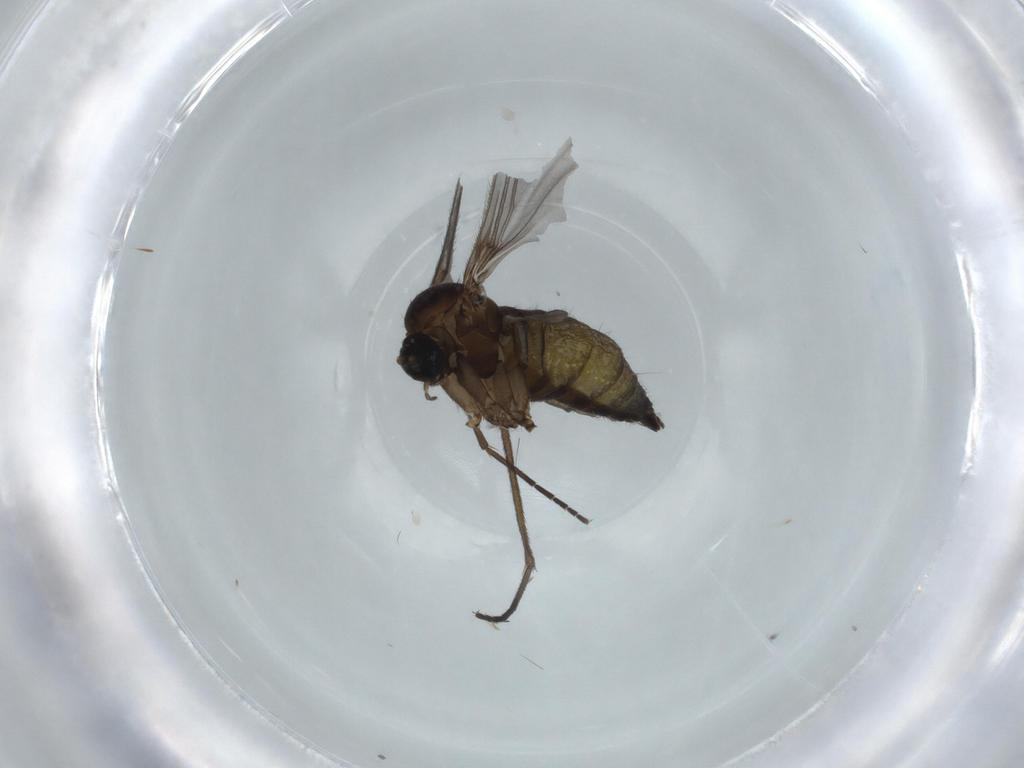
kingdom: Animalia
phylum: Arthropoda
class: Insecta
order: Diptera
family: Sciaridae
